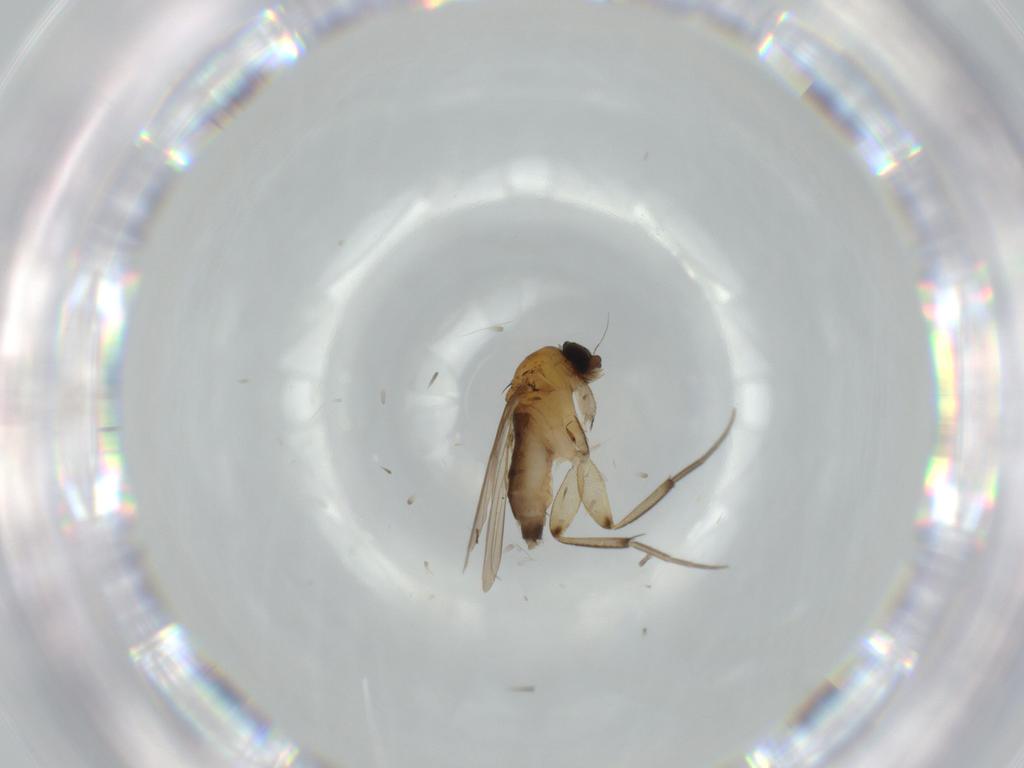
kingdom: Animalia
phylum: Arthropoda
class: Insecta
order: Diptera
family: Phoridae
